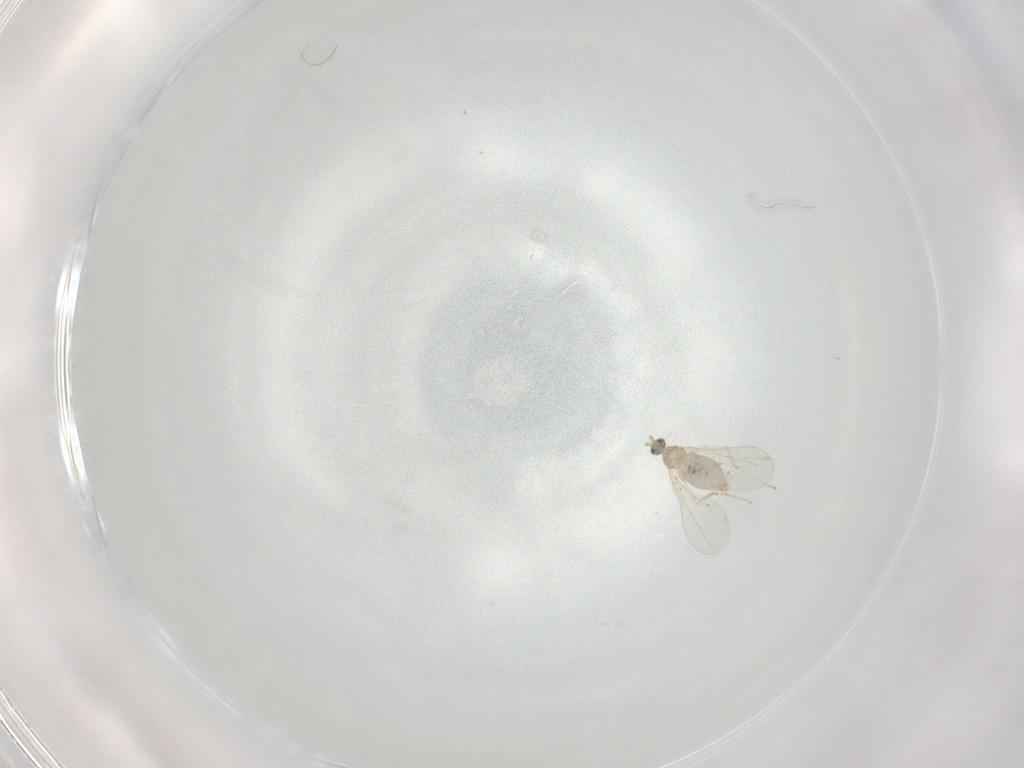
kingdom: Animalia
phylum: Arthropoda
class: Insecta
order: Diptera
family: Cecidomyiidae
